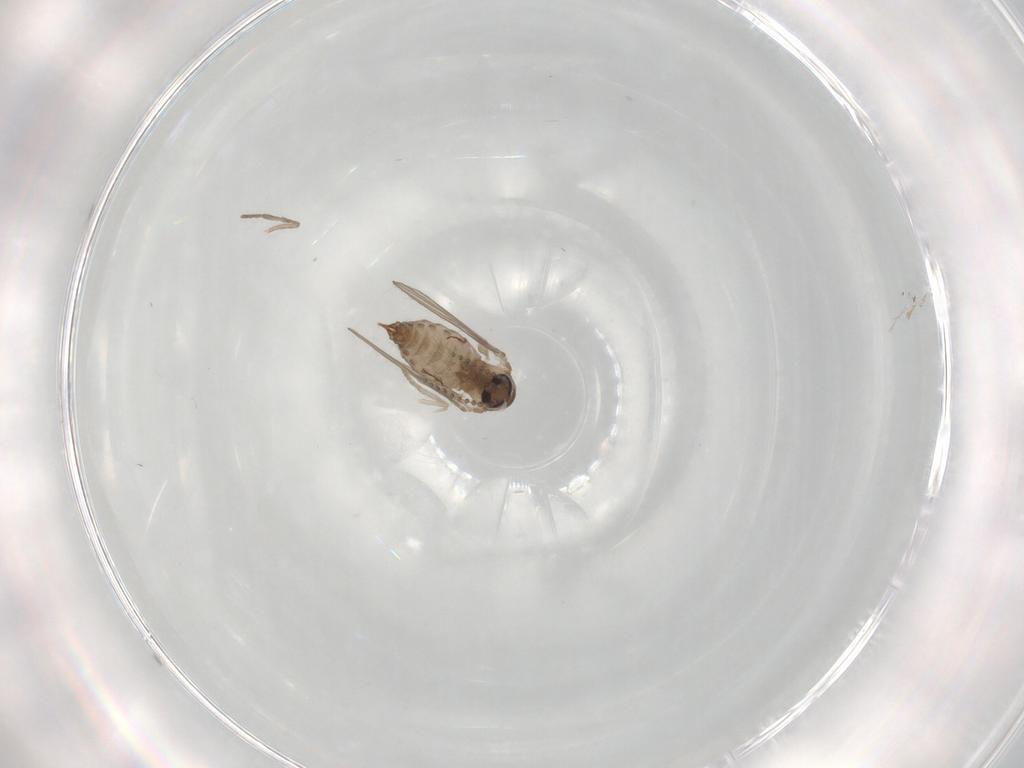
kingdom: Animalia
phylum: Arthropoda
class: Insecta
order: Diptera
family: Psychodidae
